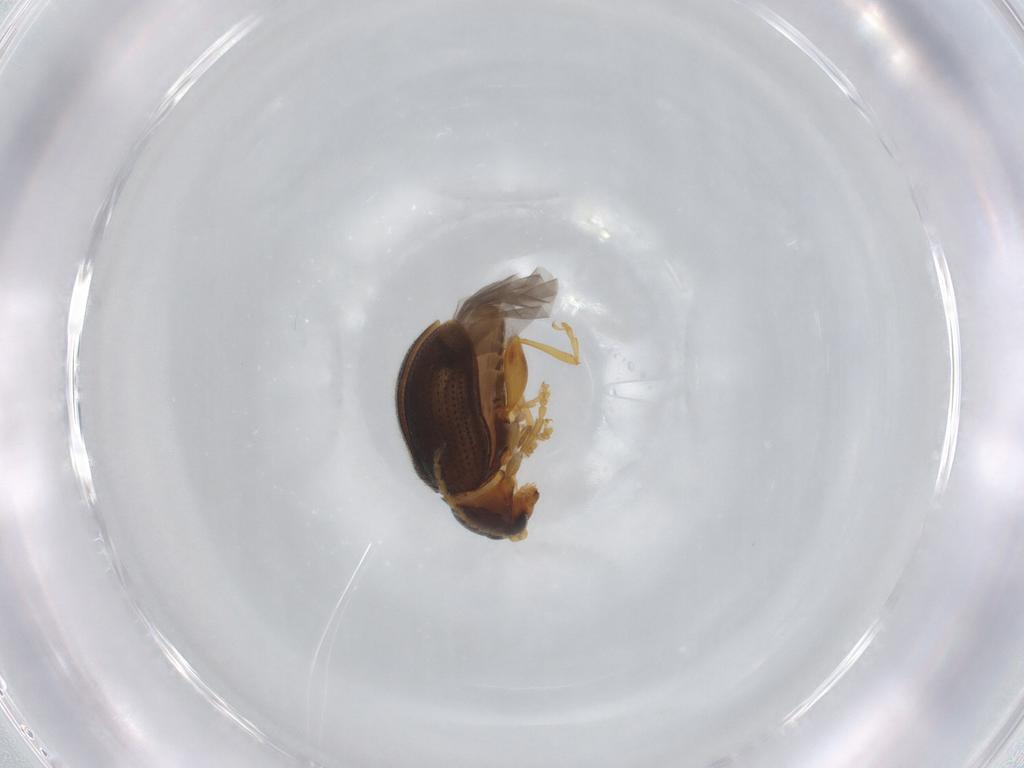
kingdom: Animalia
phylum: Arthropoda
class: Insecta
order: Coleoptera
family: Chrysomelidae
